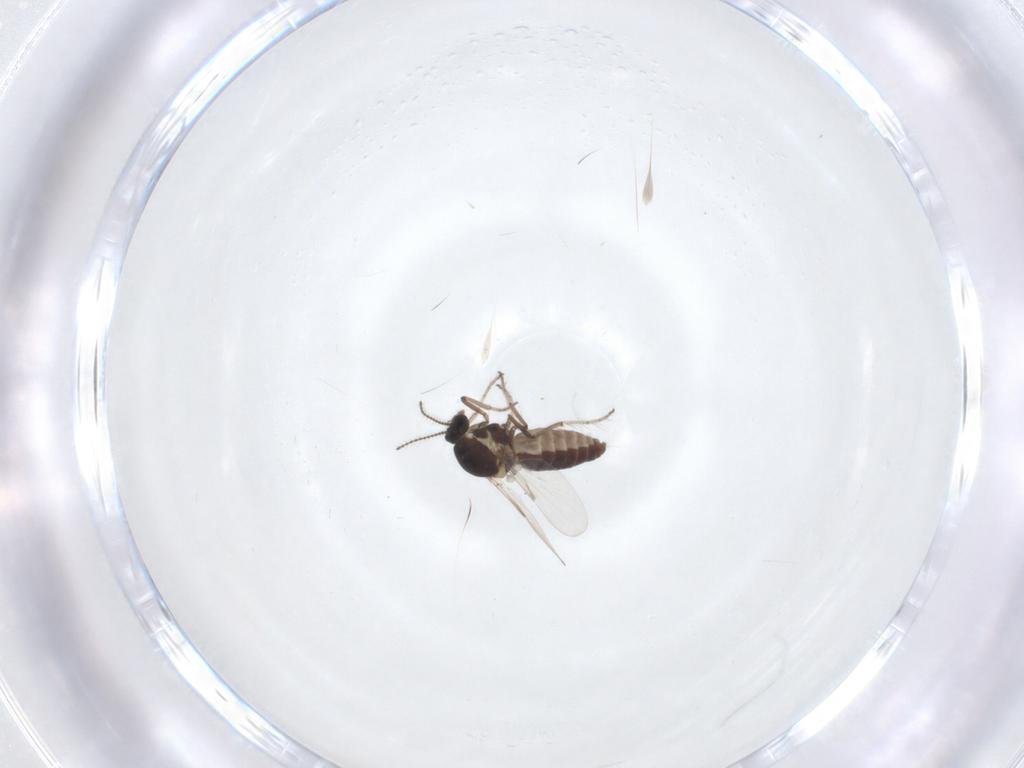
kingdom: Animalia
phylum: Arthropoda
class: Insecta
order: Diptera
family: Ceratopogonidae
